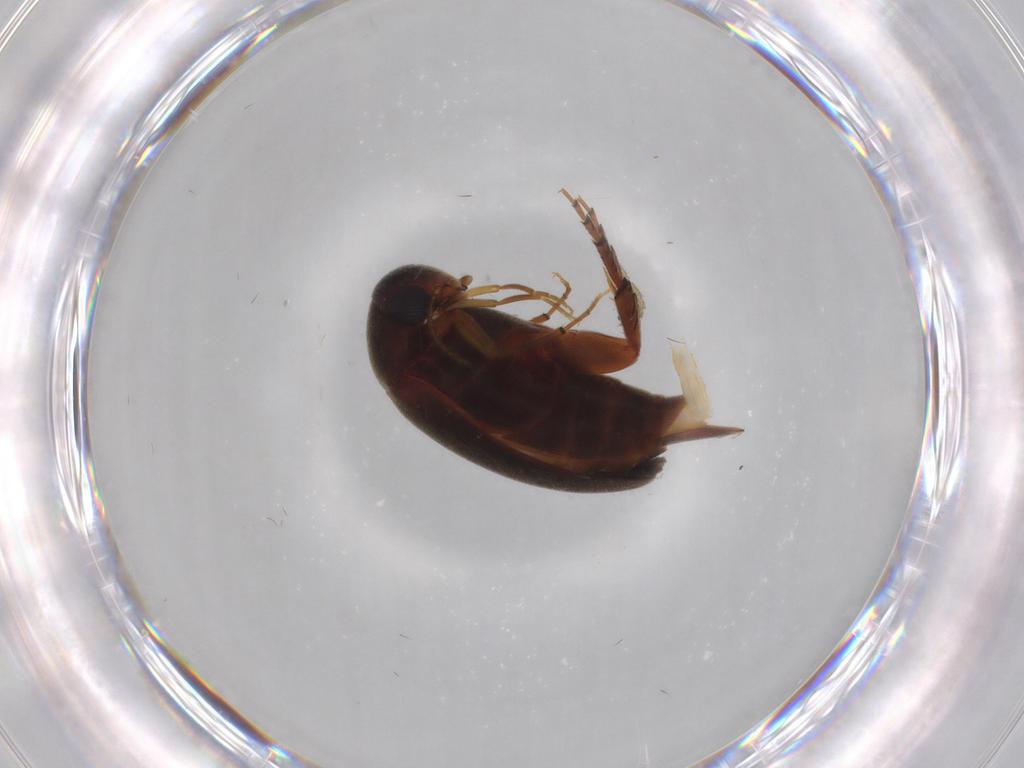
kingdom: Animalia
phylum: Arthropoda
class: Insecta
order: Coleoptera
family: Mordellidae
